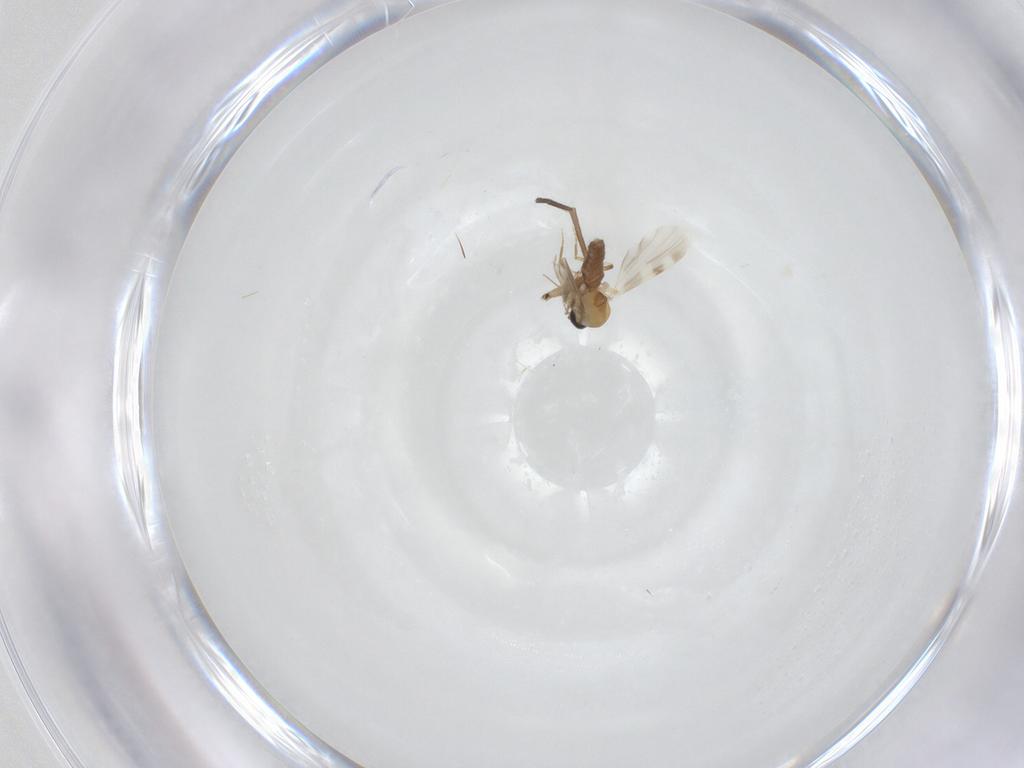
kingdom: Animalia
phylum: Arthropoda
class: Insecta
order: Diptera
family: Ceratopogonidae
